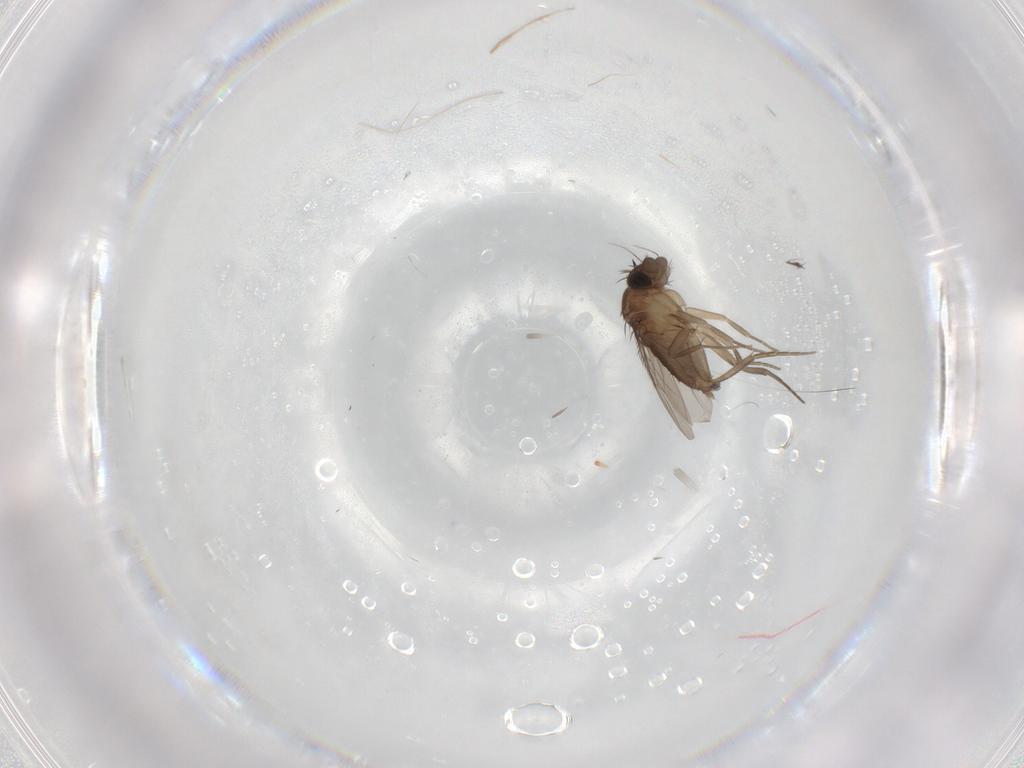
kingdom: Animalia
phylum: Arthropoda
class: Insecta
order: Diptera
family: Phoridae
